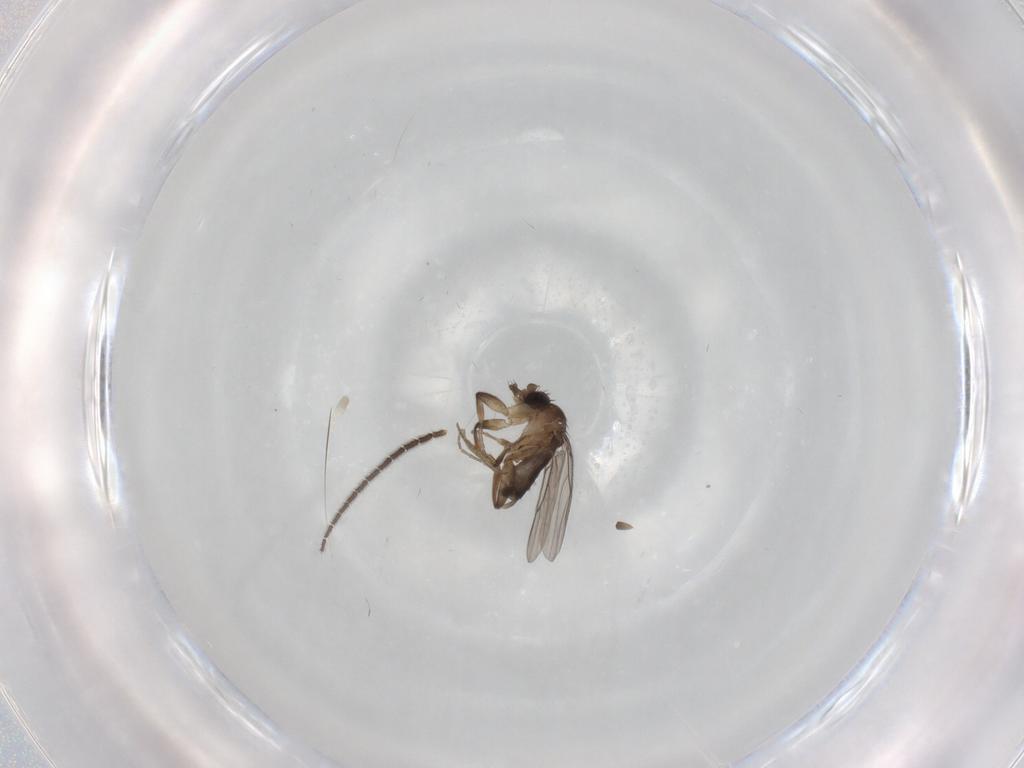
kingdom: Animalia
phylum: Arthropoda
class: Insecta
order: Diptera
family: Sciaridae
